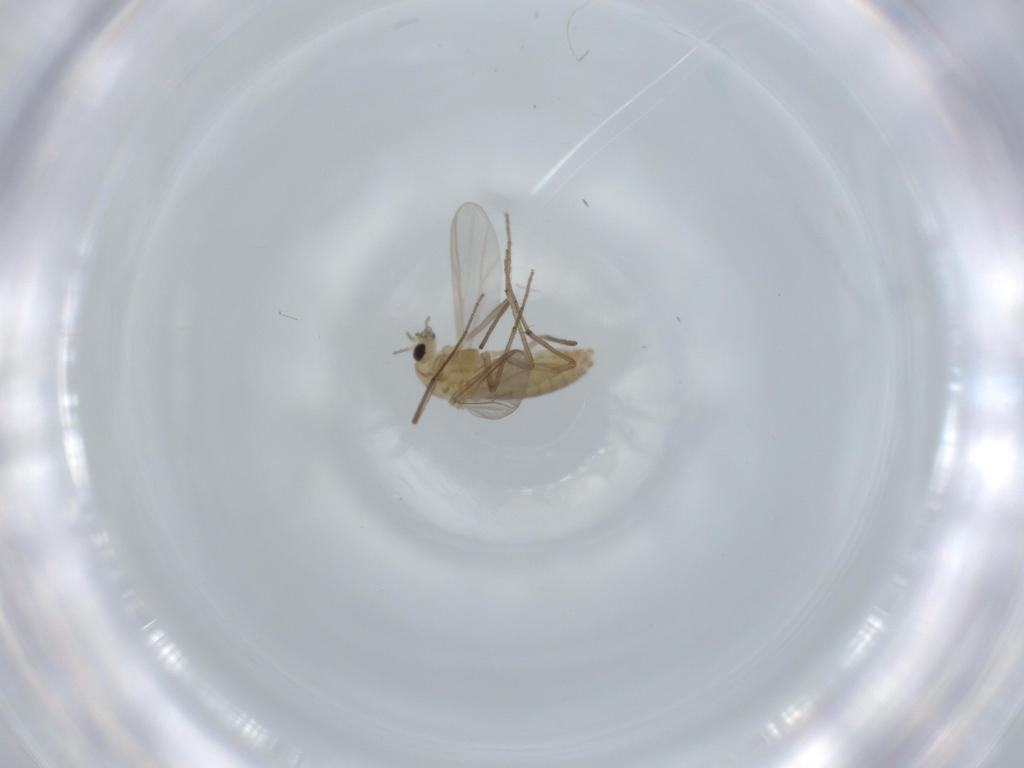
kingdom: Animalia
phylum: Arthropoda
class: Insecta
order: Diptera
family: Chironomidae
